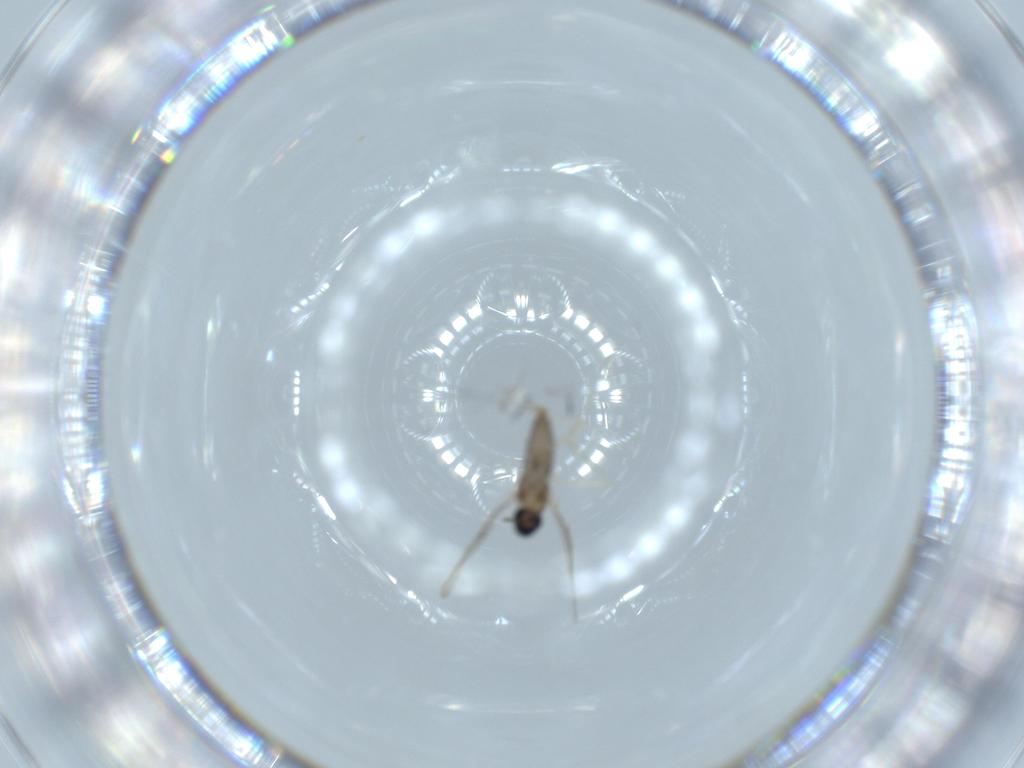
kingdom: Animalia
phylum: Arthropoda
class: Insecta
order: Diptera
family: Cecidomyiidae
